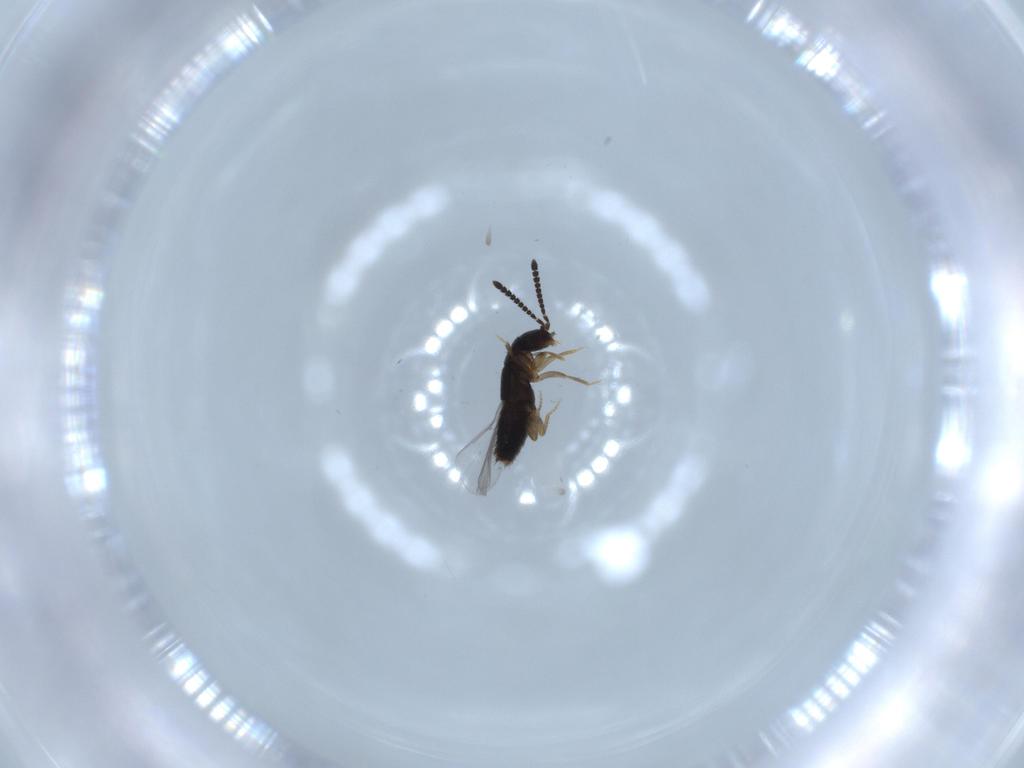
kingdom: Animalia
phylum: Arthropoda
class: Insecta
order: Coleoptera
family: Staphylinidae
